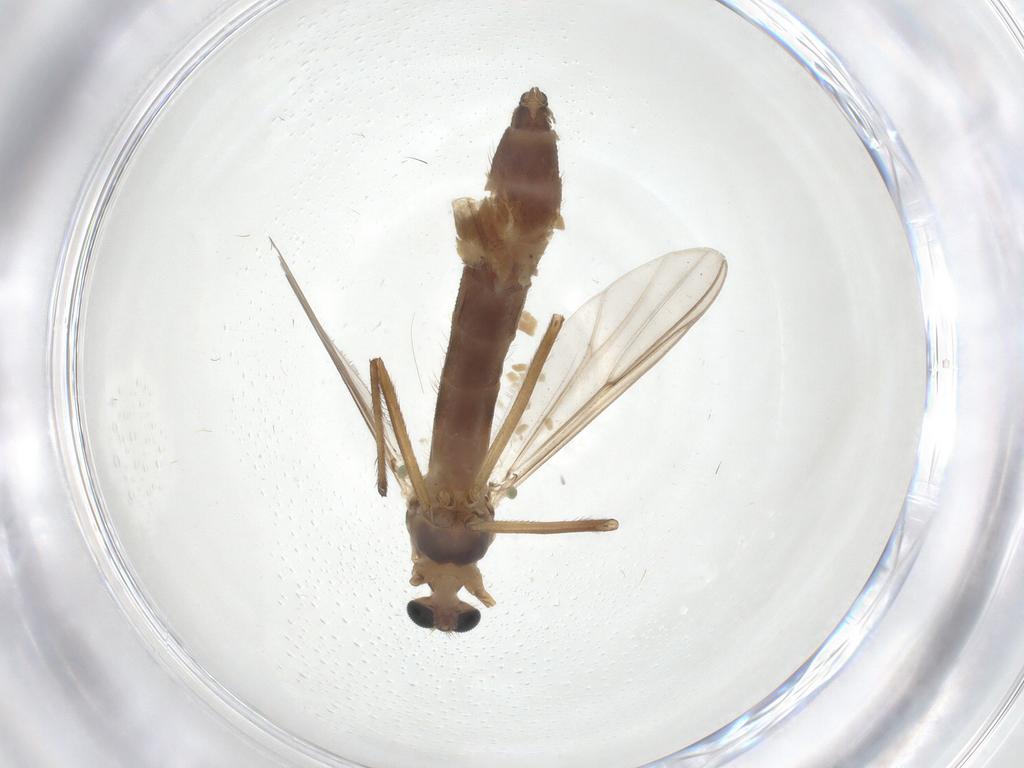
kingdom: Animalia
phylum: Arthropoda
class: Insecta
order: Diptera
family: Chironomidae
